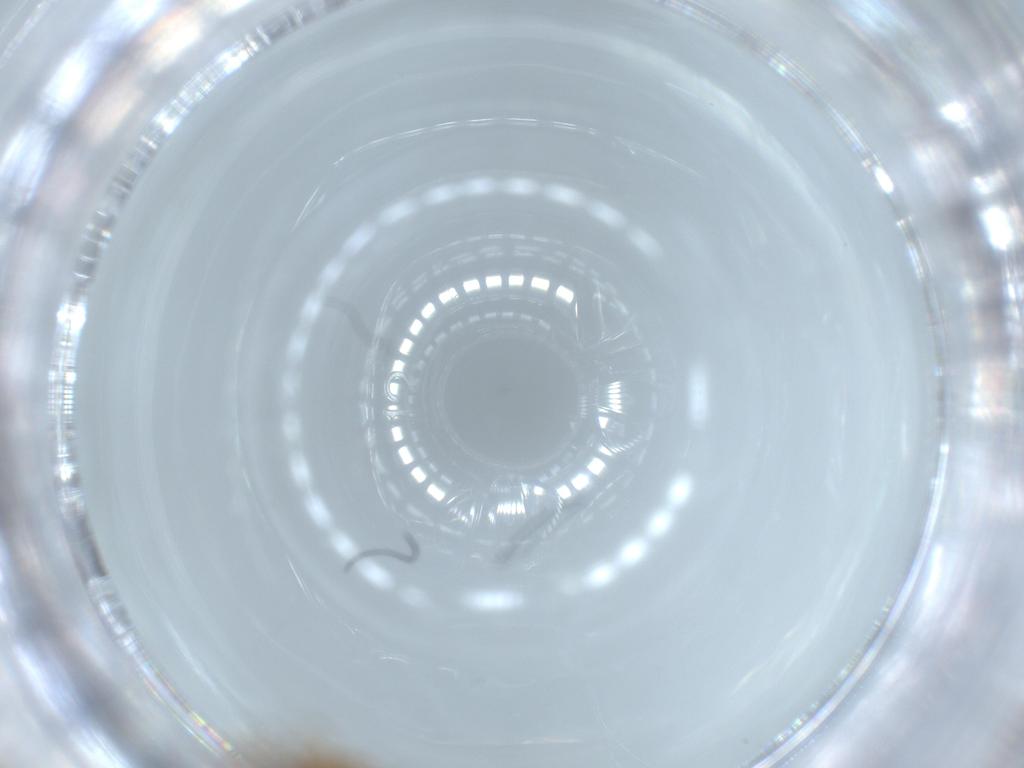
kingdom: Animalia
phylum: Arthropoda
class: Insecta
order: Hymenoptera
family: Scelionidae
